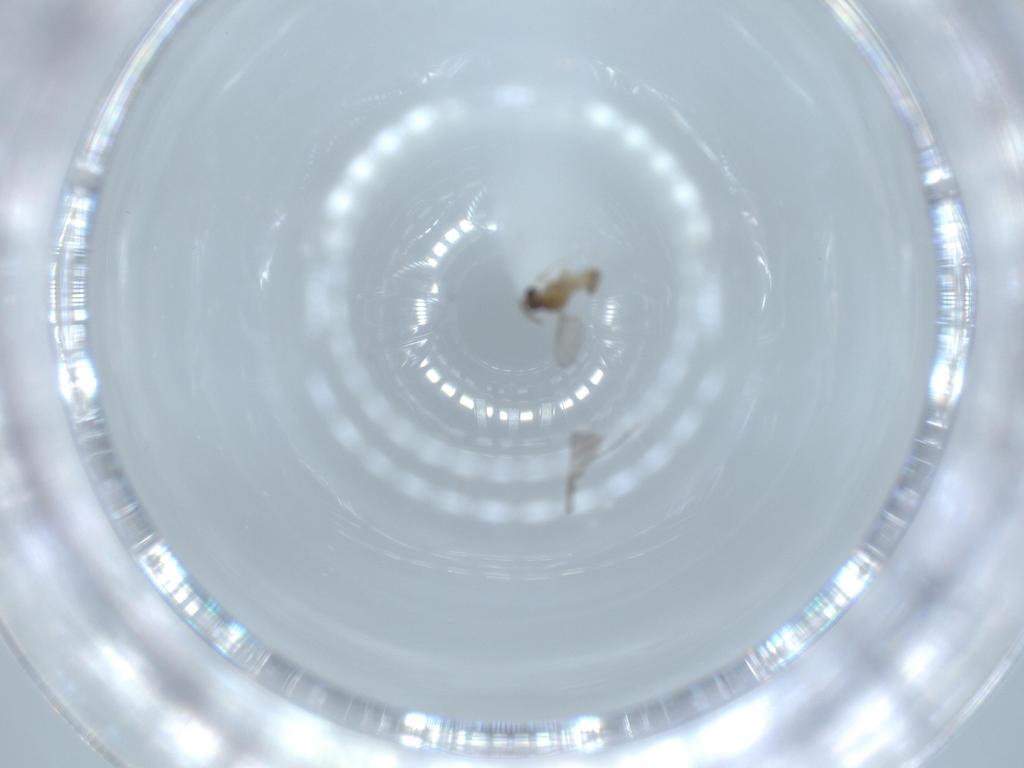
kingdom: Animalia
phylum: Arthropoda
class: Insecta
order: Diptera
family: Cecidomyiidae
